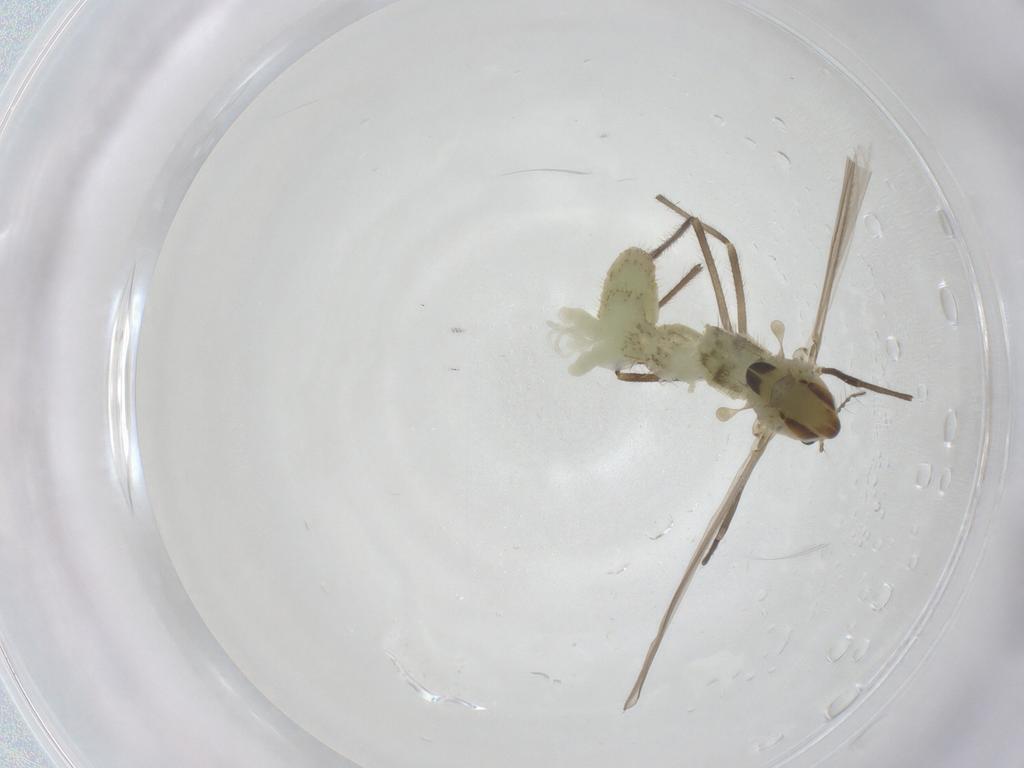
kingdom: Animalia
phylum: Arthropoda
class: Insecta
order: Diptera
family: Chironomidae
